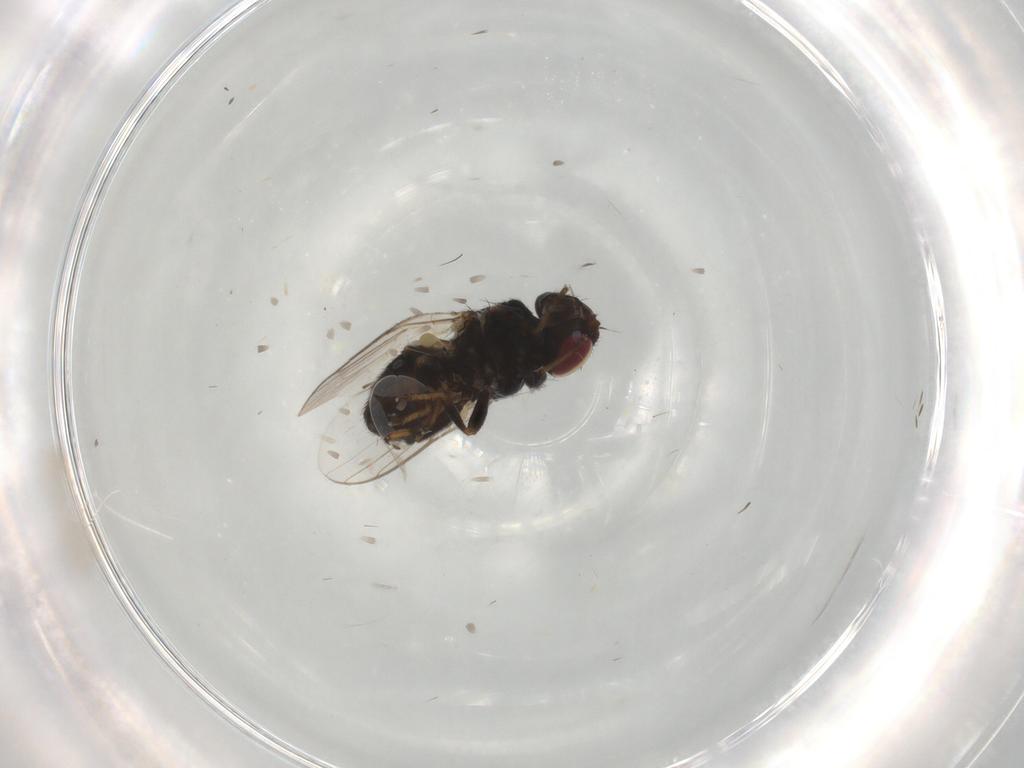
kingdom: Animalia
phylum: Arthropoda
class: Insecta
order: Diptera
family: Chloropidae
